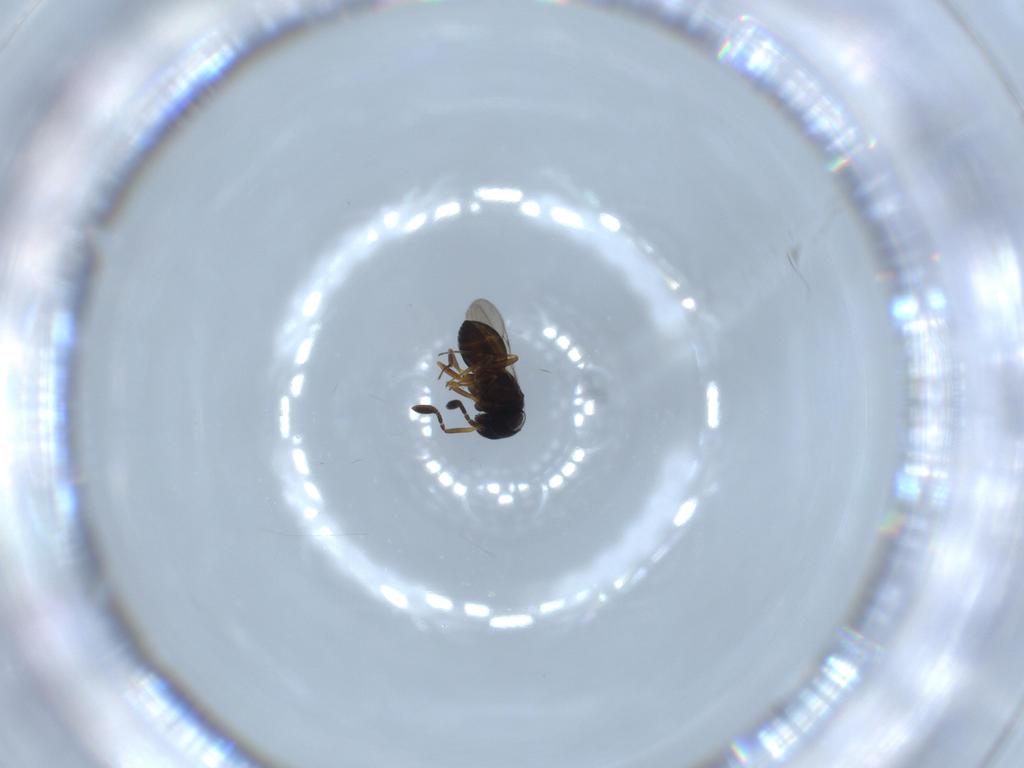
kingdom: Animalia
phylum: Arthropoda
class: Insecta
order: Hymenoptera
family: Platygastridae
